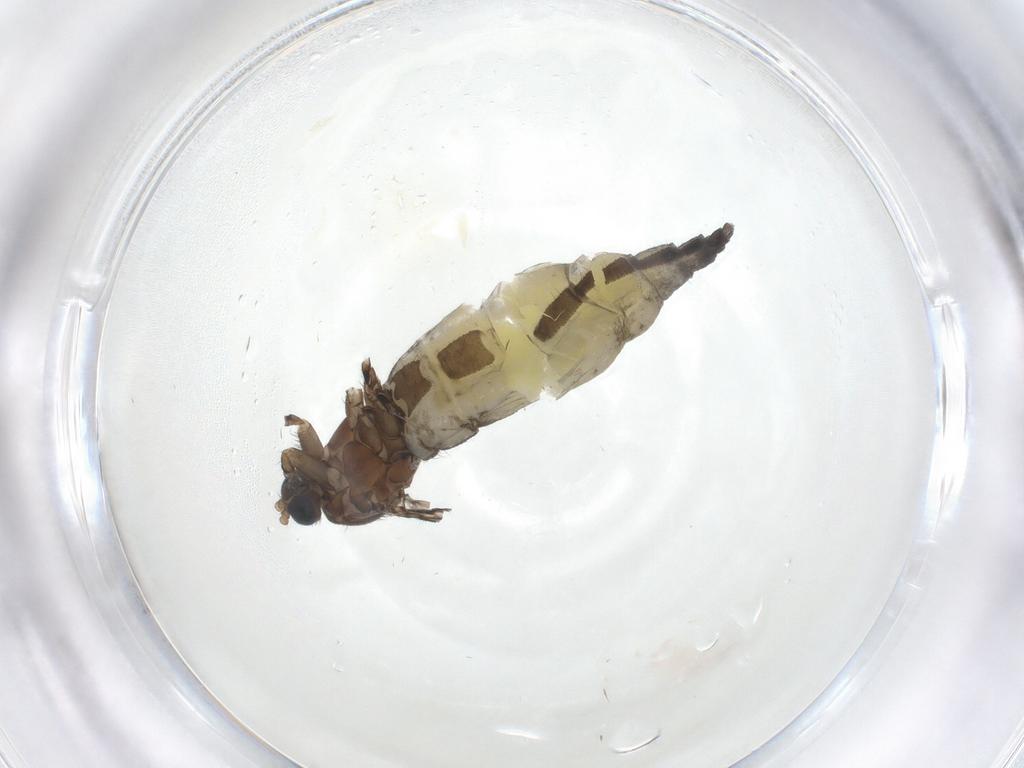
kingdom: Animalia
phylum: Arthropoda
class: Insecta
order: Diptera
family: Sciaridae
